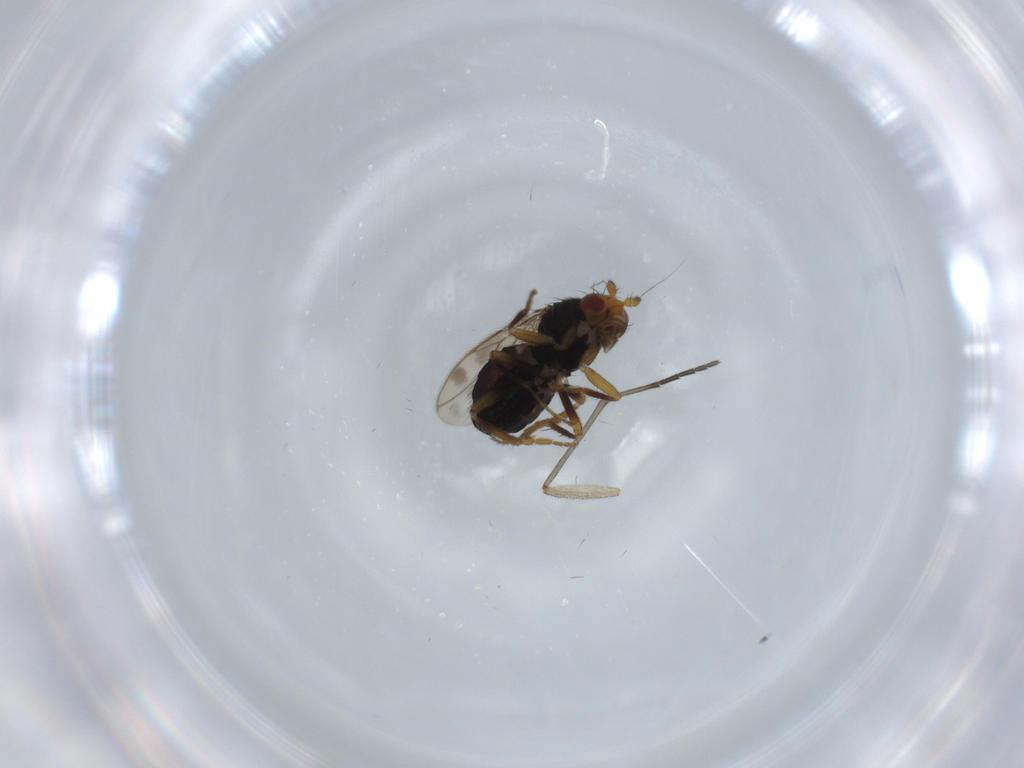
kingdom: Animalia
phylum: Arthropoda
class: Insecta
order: Diptera
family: Sphaeroceridae
